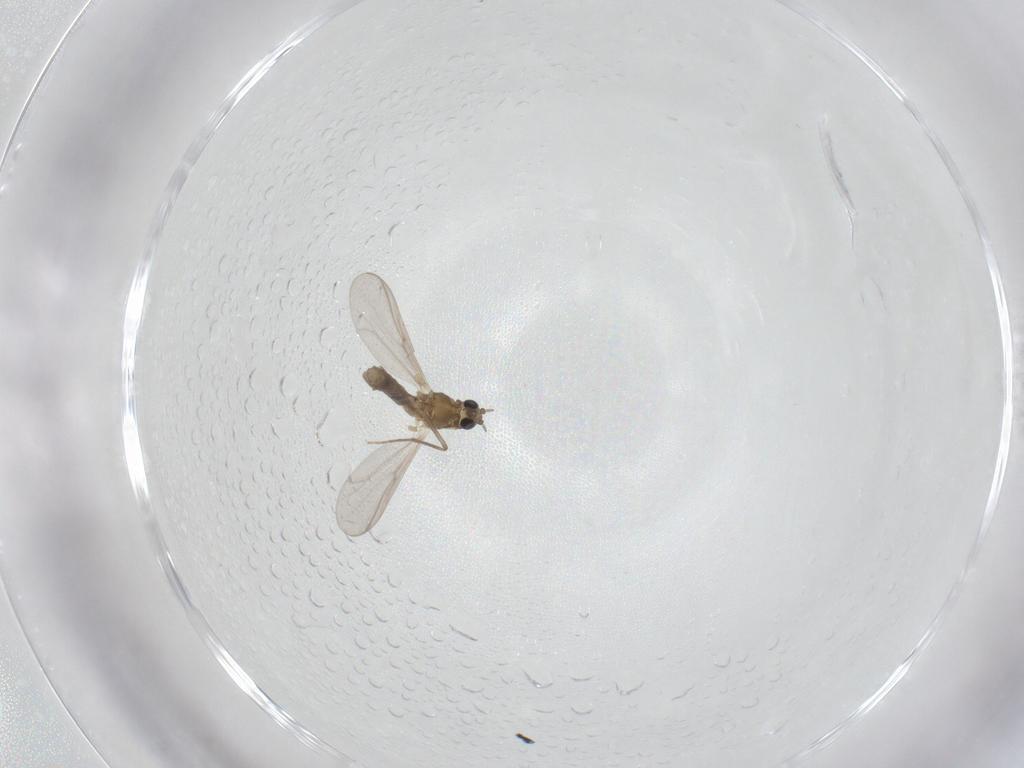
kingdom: Animalia
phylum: Arthropoda
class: Insecta
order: Diptera
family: Chironomidae
